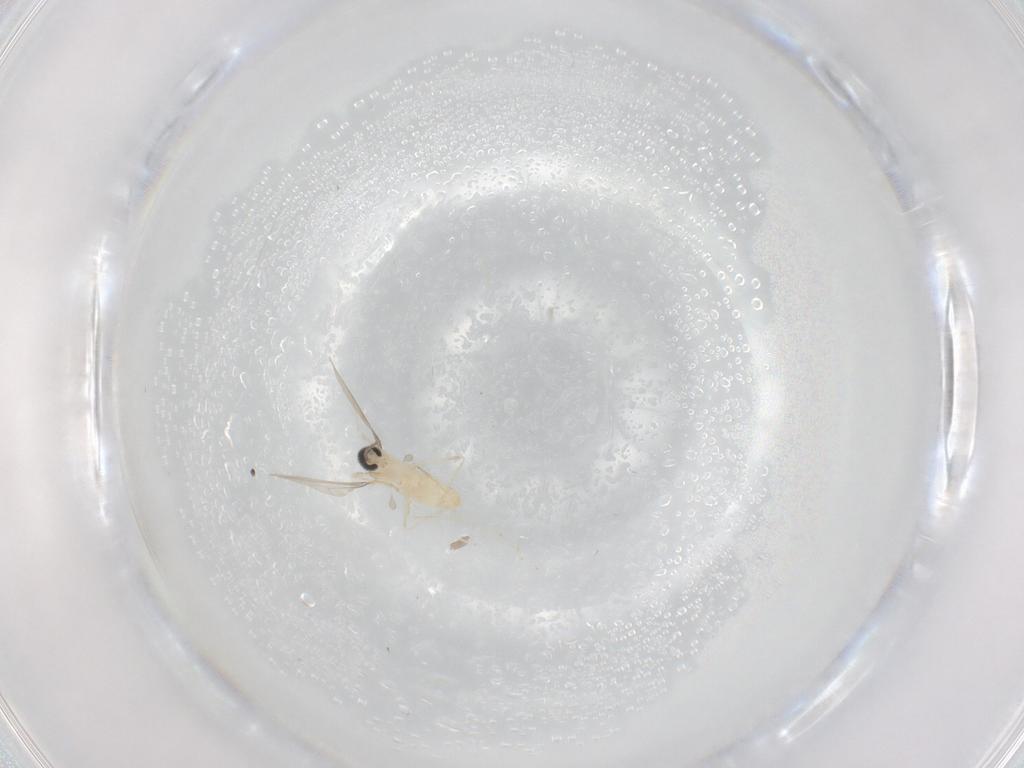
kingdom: Animalia
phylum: Arthropoda
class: Insecta
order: Diptera
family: Cecidomyiidae
